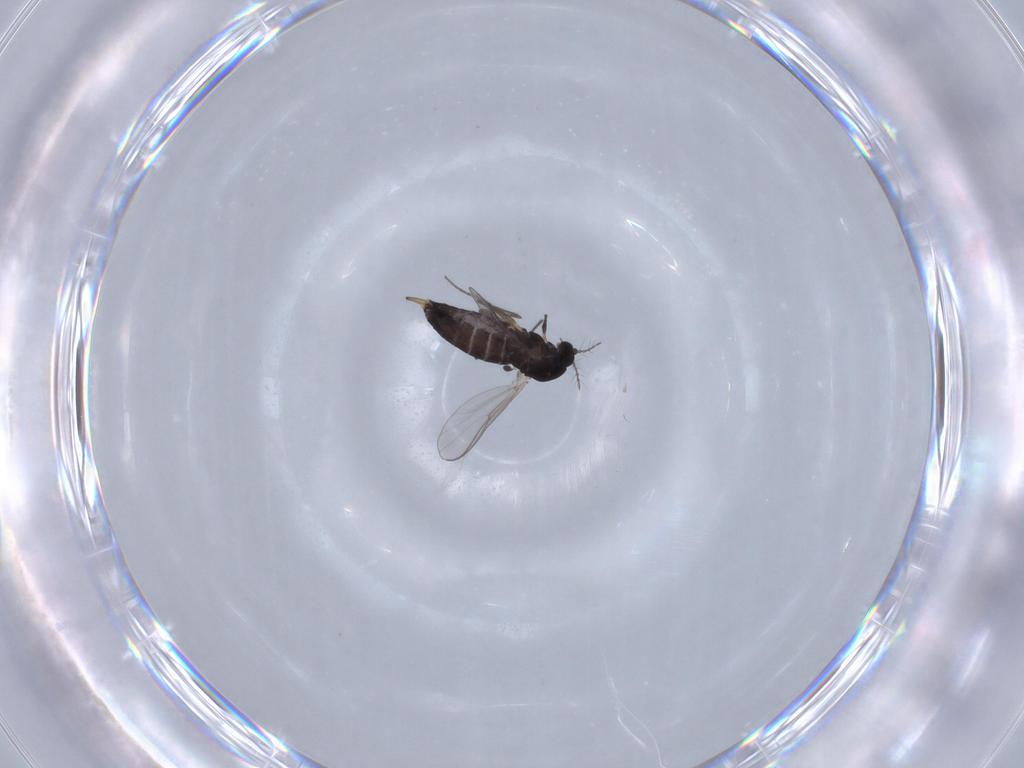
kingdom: Animalia
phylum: Arthropoda
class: Insecta
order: Diptera
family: Chironomidae
